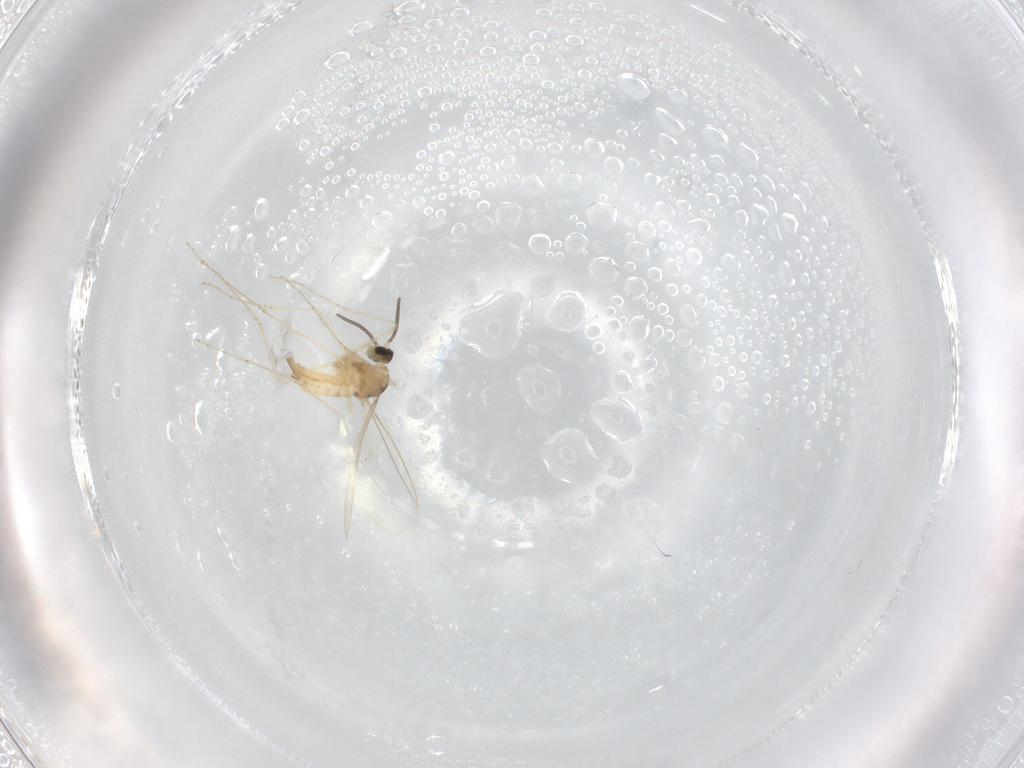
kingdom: Animalia
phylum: Arthropoda
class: Insecta
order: Diptera
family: Cecidomyiidae
